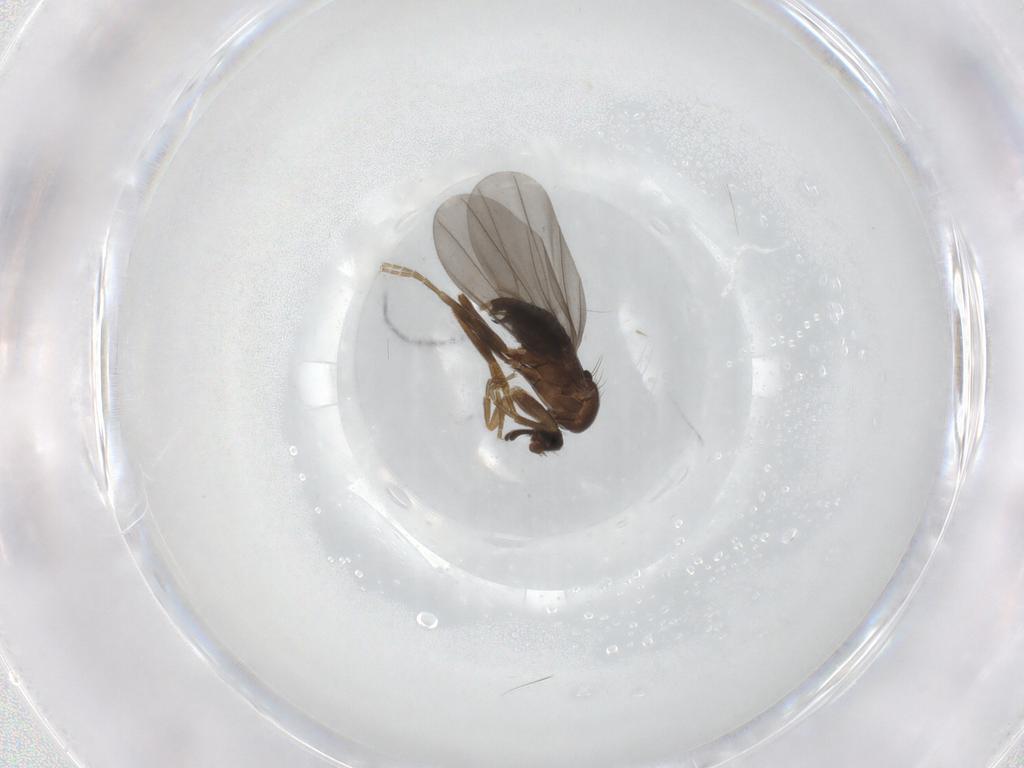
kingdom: Animalia
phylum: Arthropoda
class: Insecta
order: Diptera
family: Phoridae
